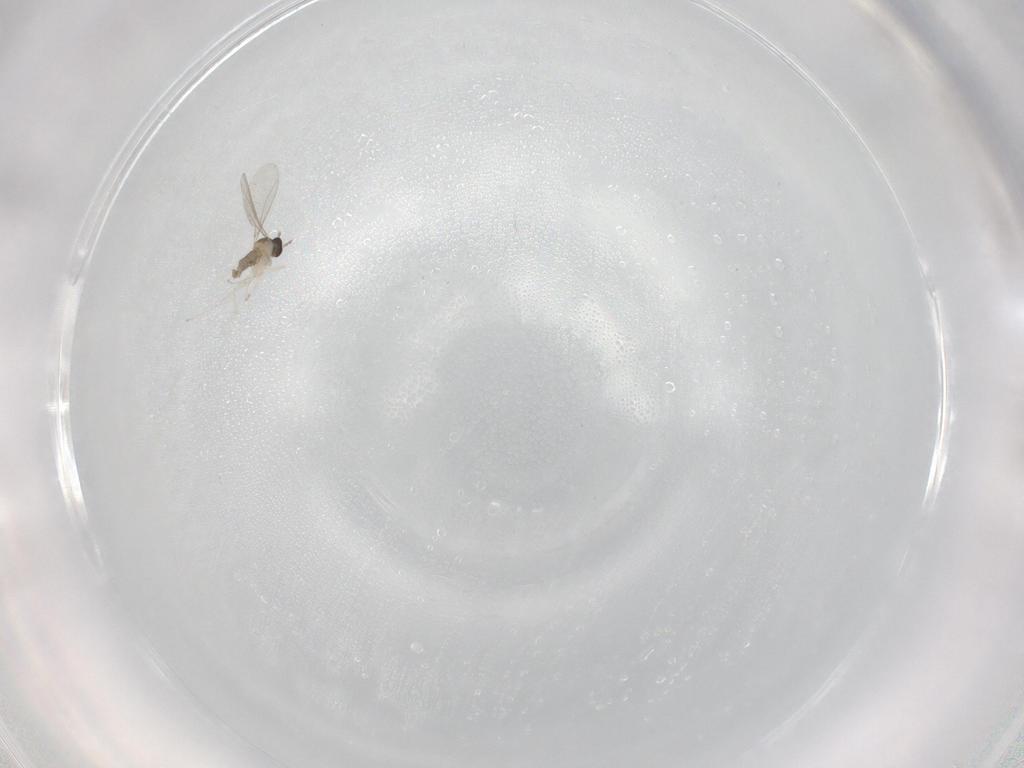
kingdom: Animalia
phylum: Arthropoda
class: Insecta
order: Diptera
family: Cecidomyiidae
